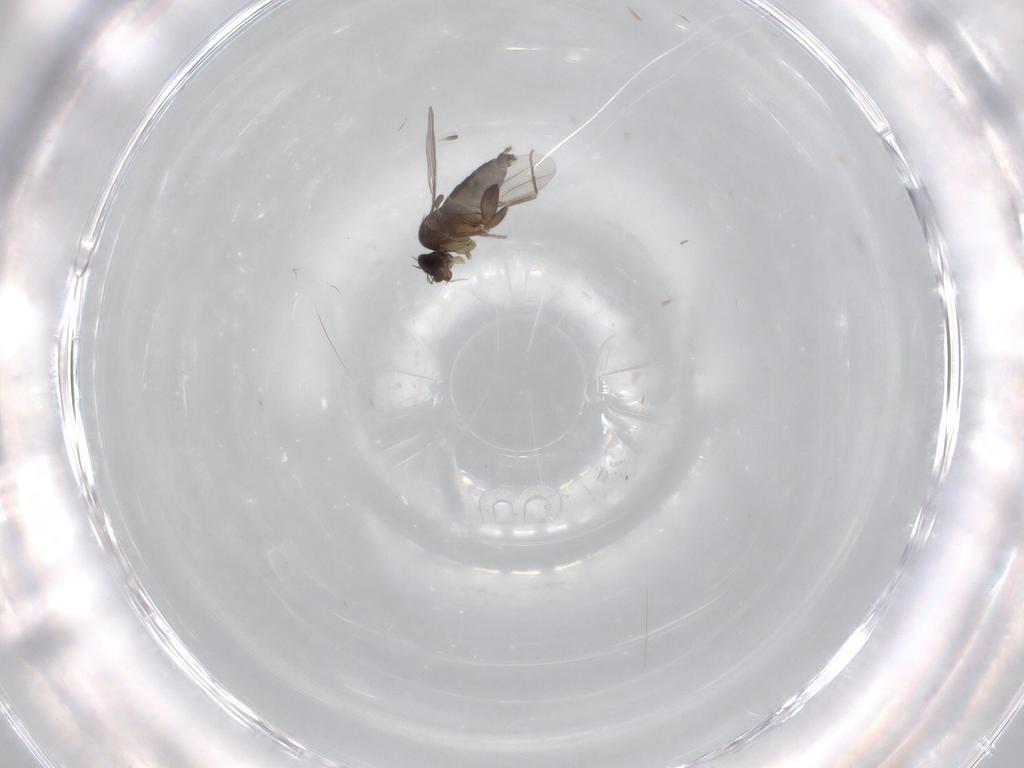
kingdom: Animalia
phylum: Arthropoda
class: Insecta
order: Diptera
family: Phoridae
